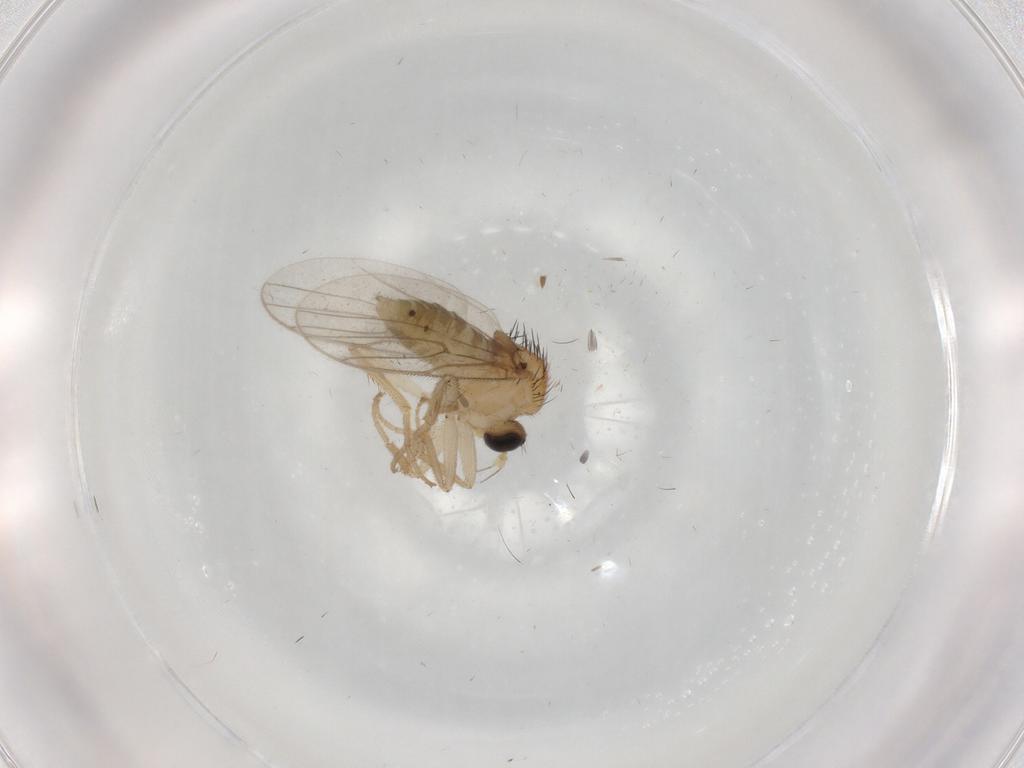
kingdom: Animalia
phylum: Arthropoda
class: Insecta
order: Diptera
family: Hybotidae
